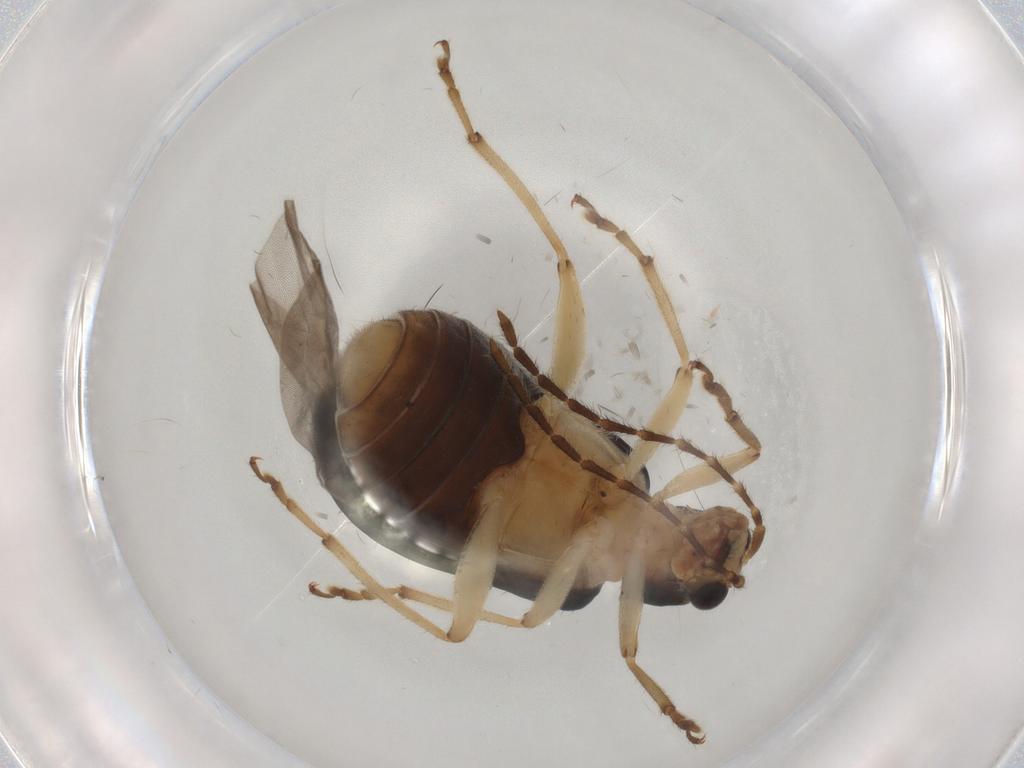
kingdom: Animalia
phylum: Arthropoda
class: Insecta
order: Coleoptera
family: Chrysomelidae
